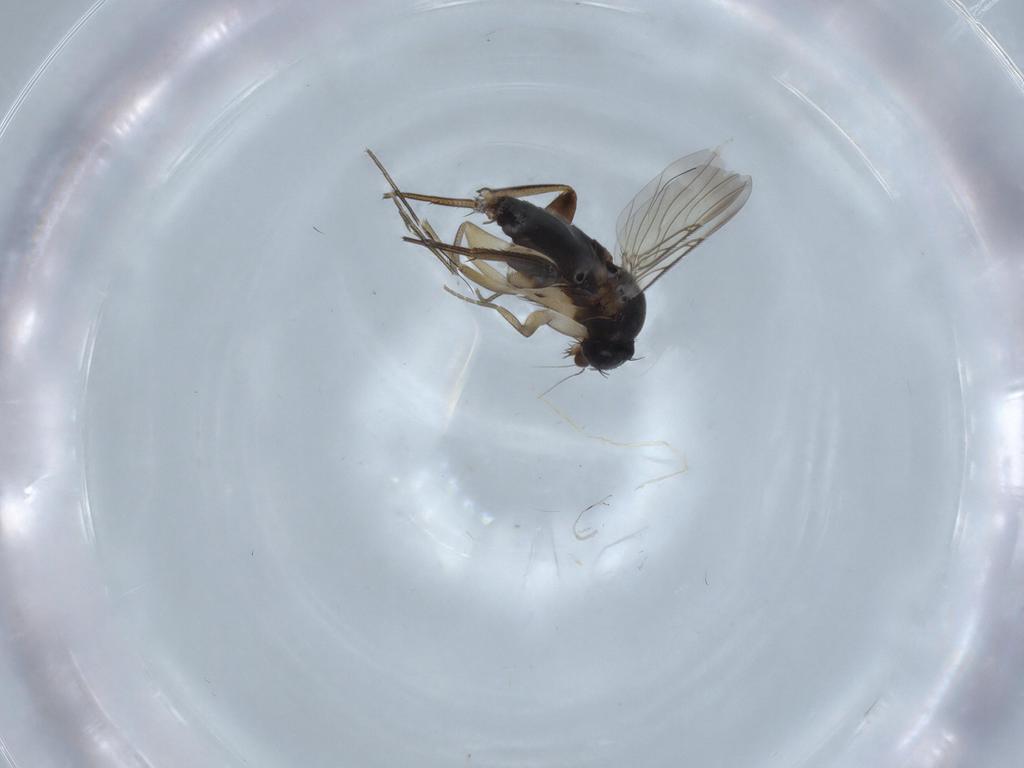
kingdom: Animalia
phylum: Arthropoda
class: Insecta
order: Diptera
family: Phoridae
